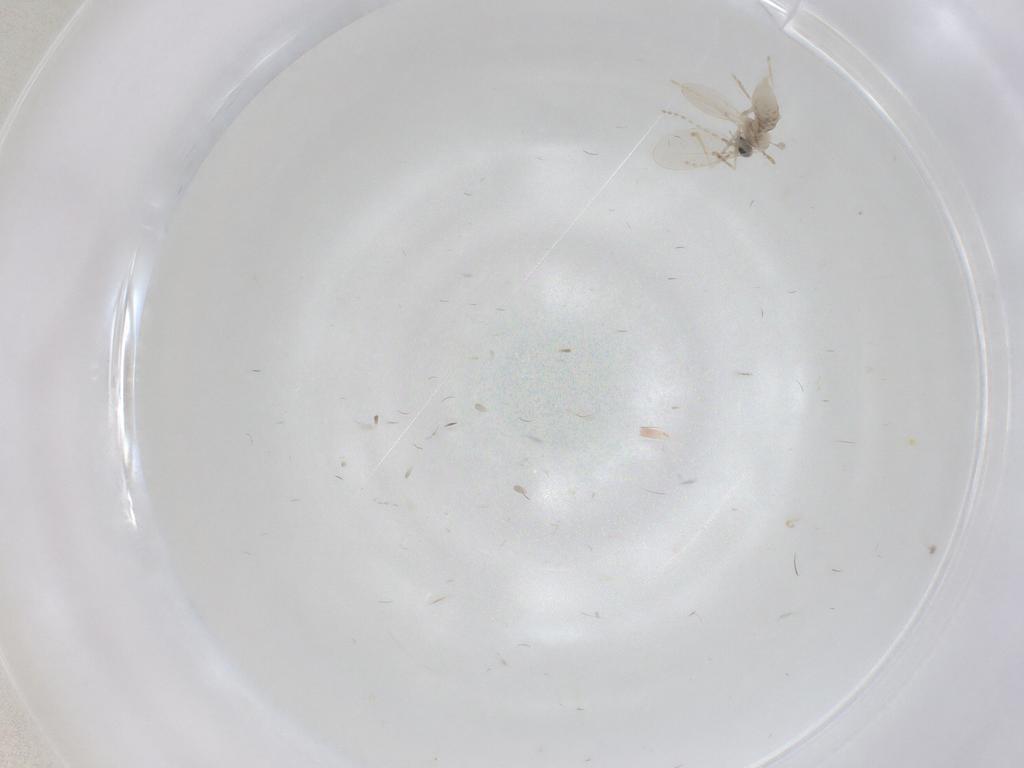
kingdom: Animalia
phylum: Arthropoda
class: Insecta
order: Diptera
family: Cecidomyiidae
